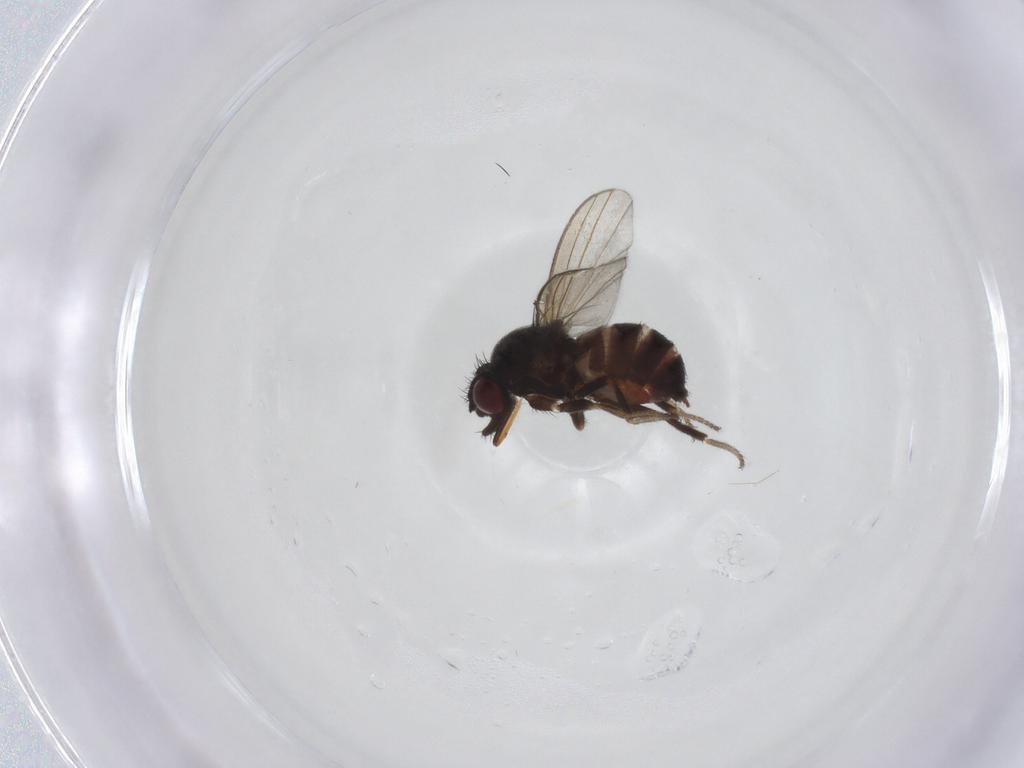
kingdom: Animalia
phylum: Arthropoda
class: Insecta
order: Diptera
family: Milichiidae
